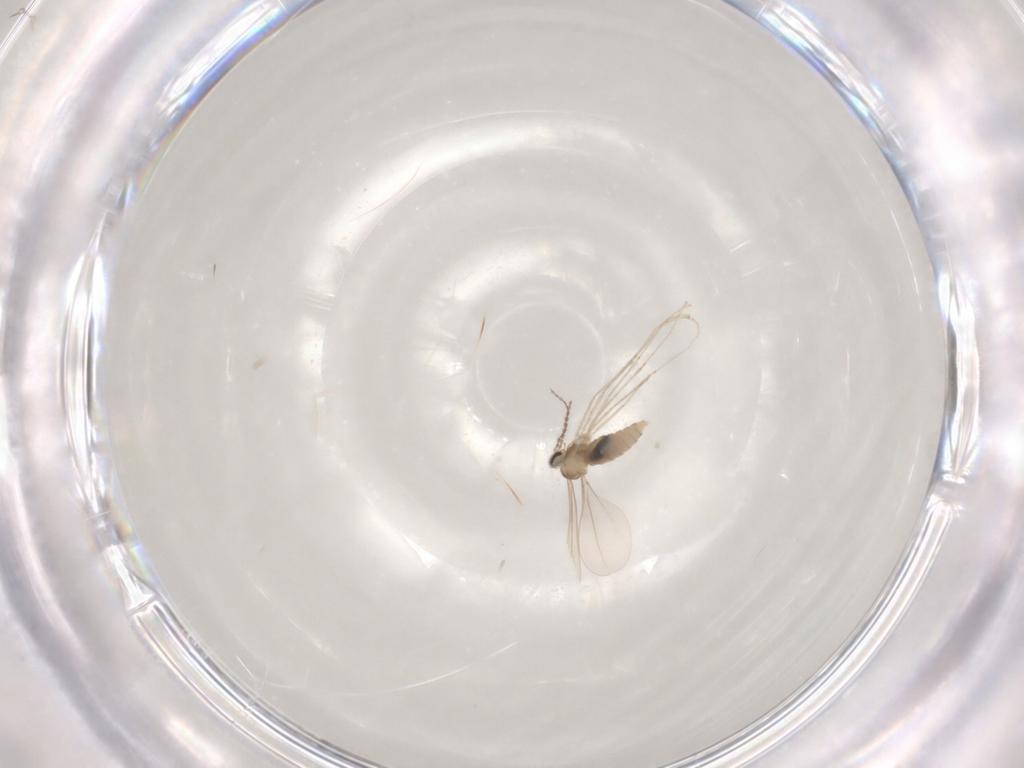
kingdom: Animalia
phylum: Arthropoda
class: Insecta
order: Diptera
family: Cecidomyiidae
